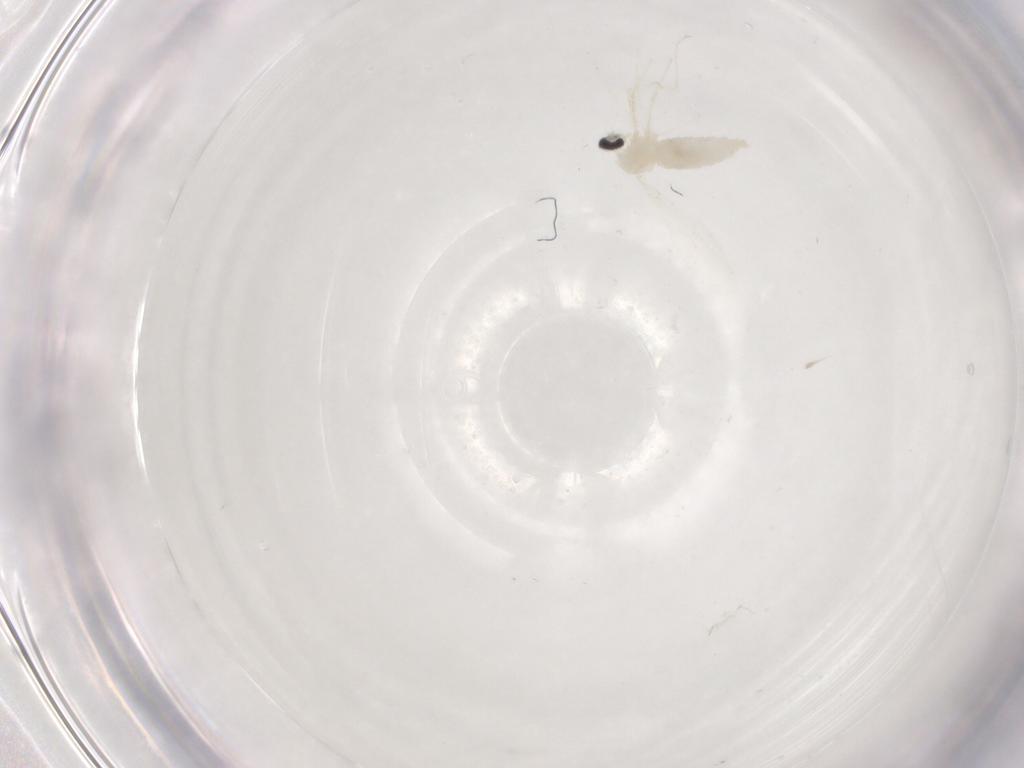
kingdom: Animalia
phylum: Arthropoda
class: Insecta
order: Diptera
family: Cecidomyiidae
